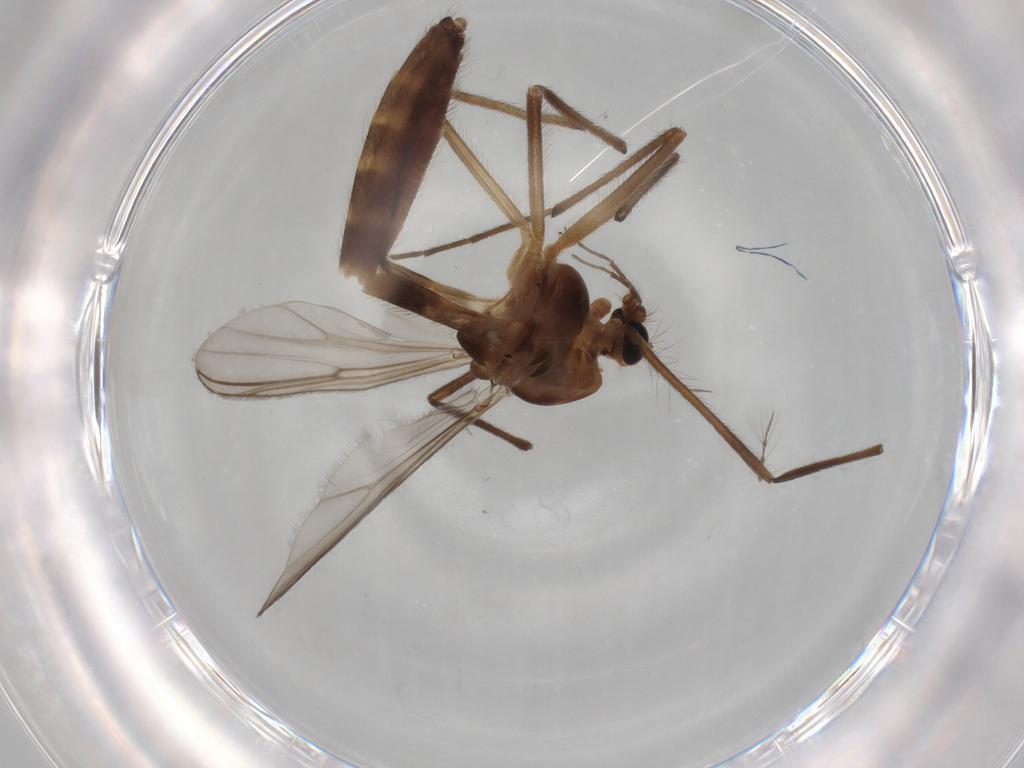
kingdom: Animalia
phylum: Arthropoda
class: Insecta
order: Diptera
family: Chironomidae
